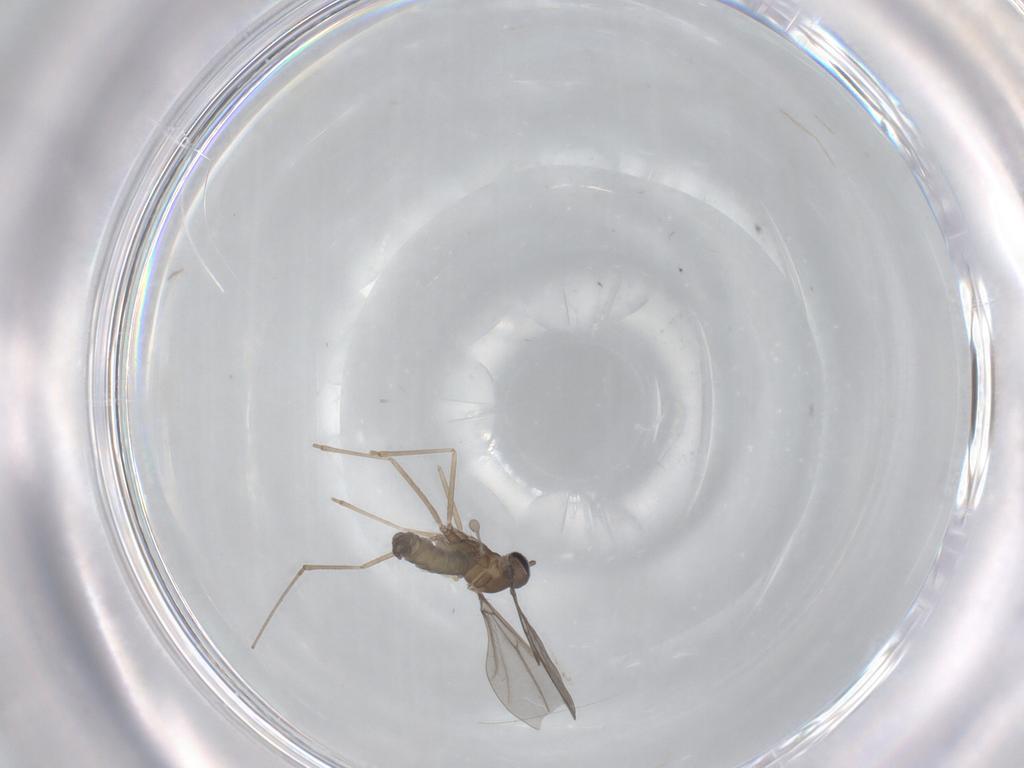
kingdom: Animalia
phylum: Arthropoda
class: Insecta
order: Diptera
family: Cecidomyiidae
